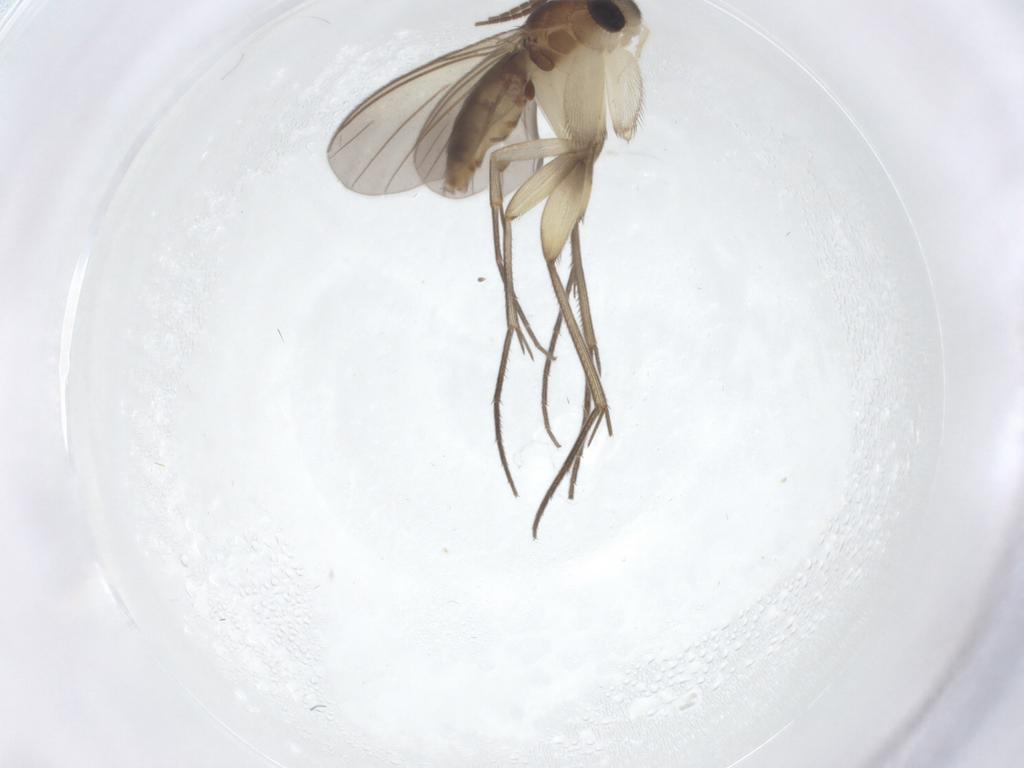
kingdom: Animalia
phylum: Arthropoda
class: Insecta
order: Diptera
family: Mycetophilidae
